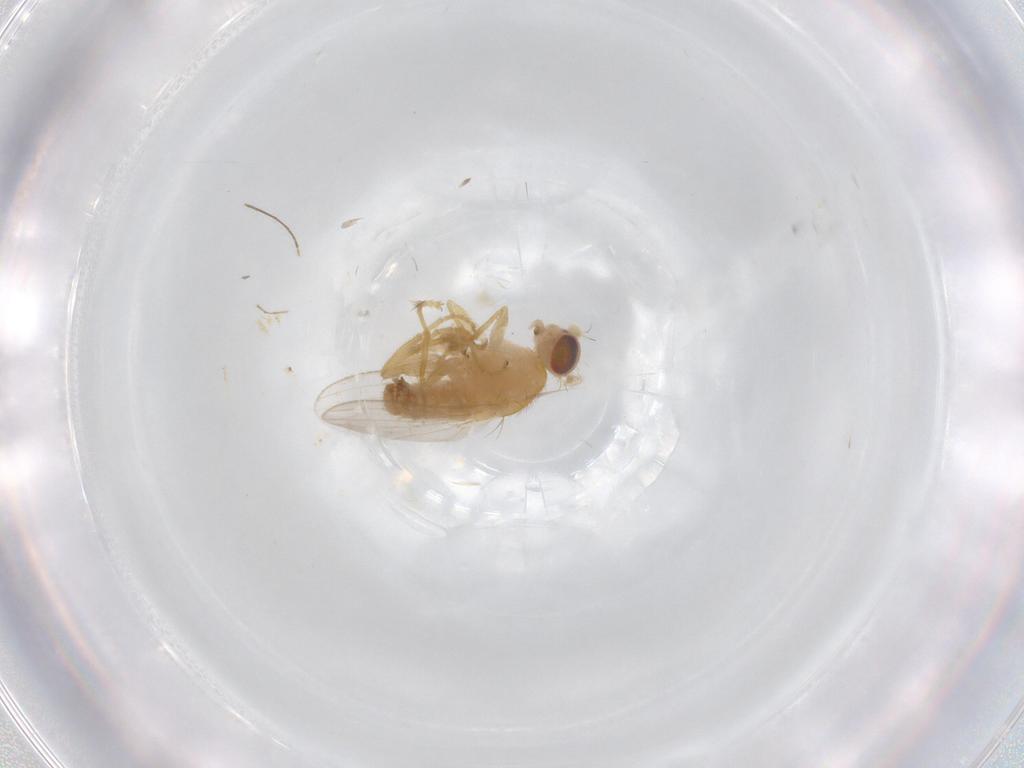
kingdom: Animalia
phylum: Arthropoda
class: Insecta
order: Diptera
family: Chyromyidae
